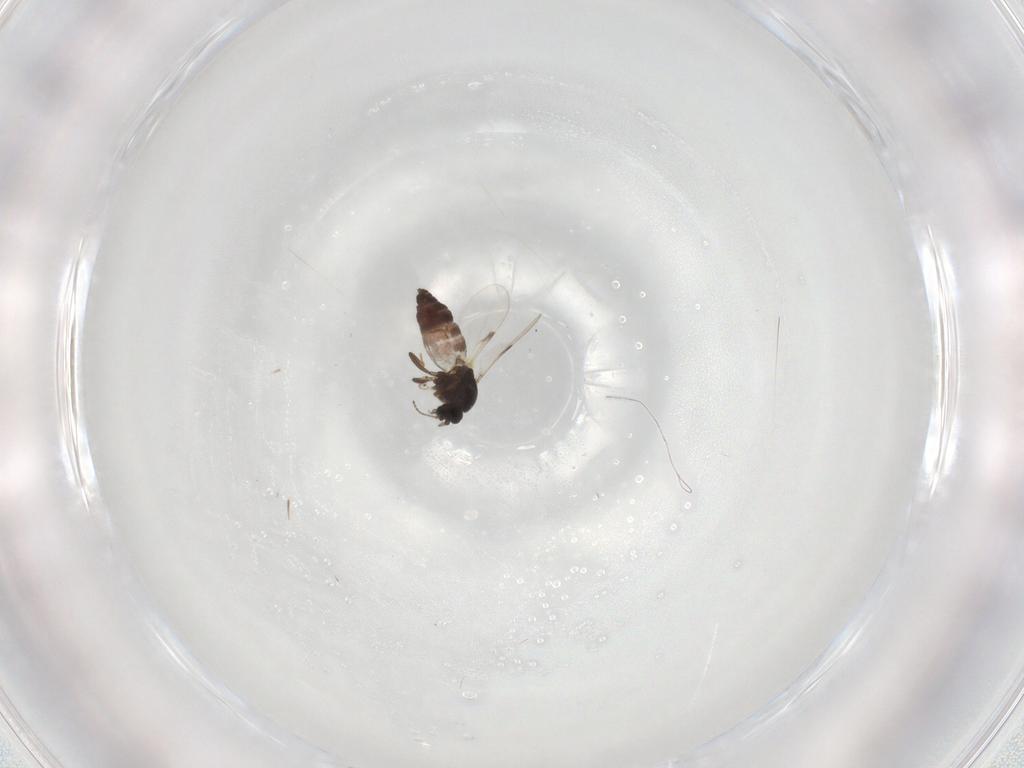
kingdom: Animalia
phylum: Arthropoda
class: Insecta
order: Diptera
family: Ceratopogonidae
